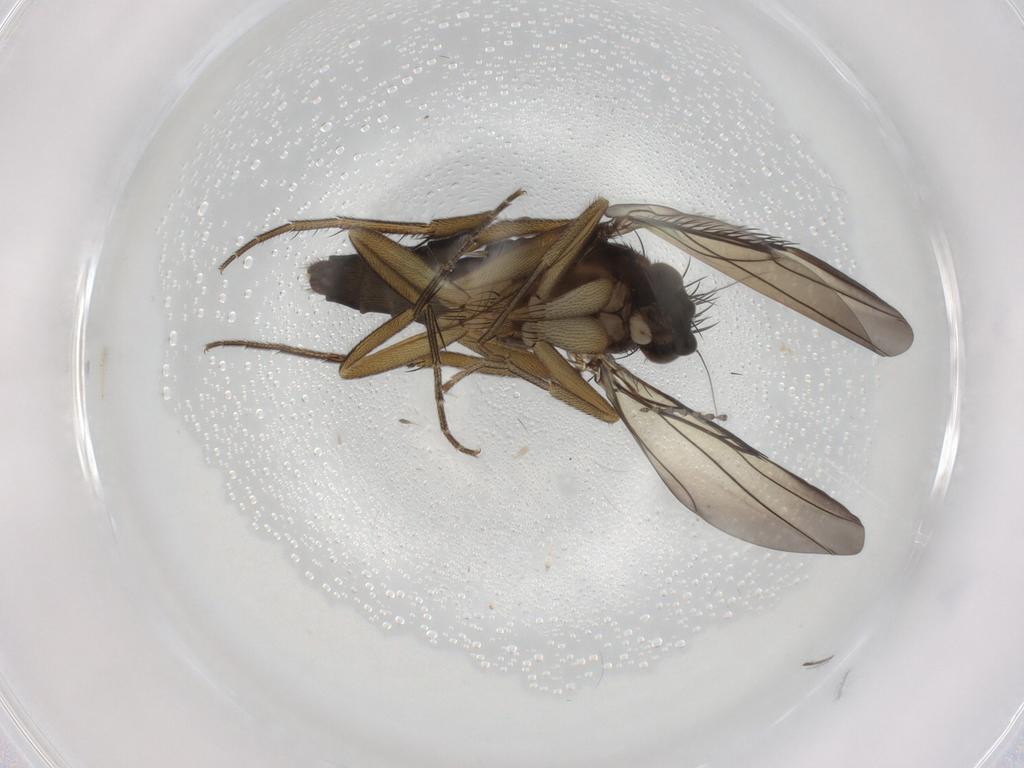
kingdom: Animalia
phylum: Arthropoda
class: Insecta
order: Diptera
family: Phoridae
